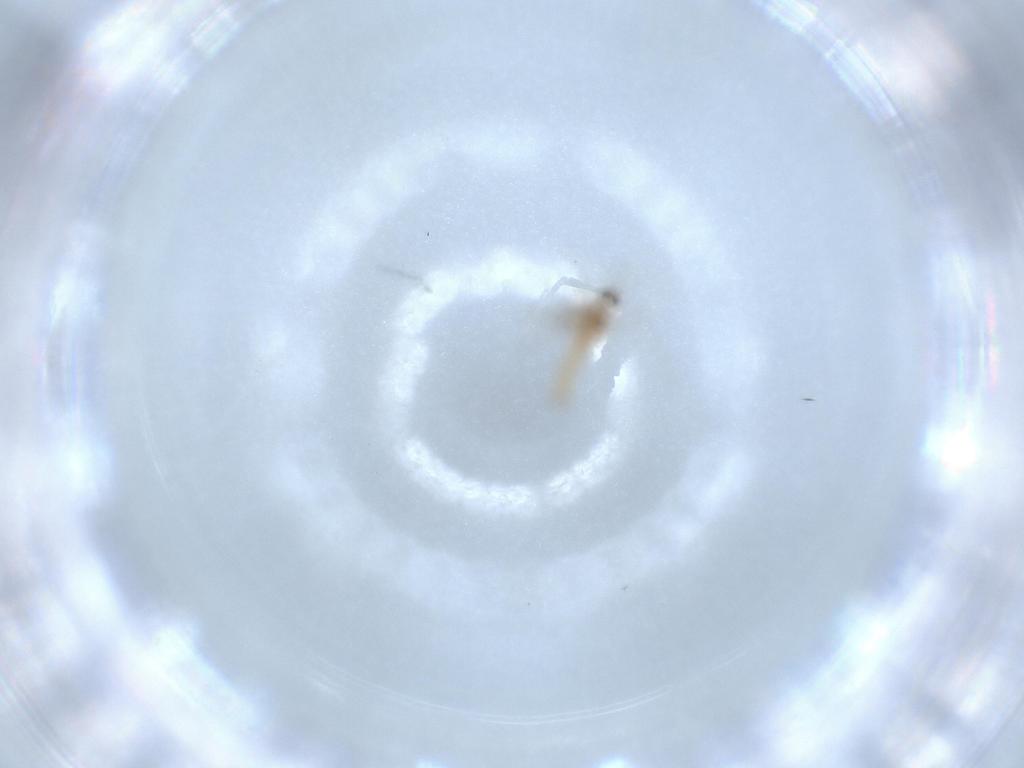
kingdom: Animalia
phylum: Arthropoda
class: Insecta
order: Diptera
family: Cecidomyiidae
